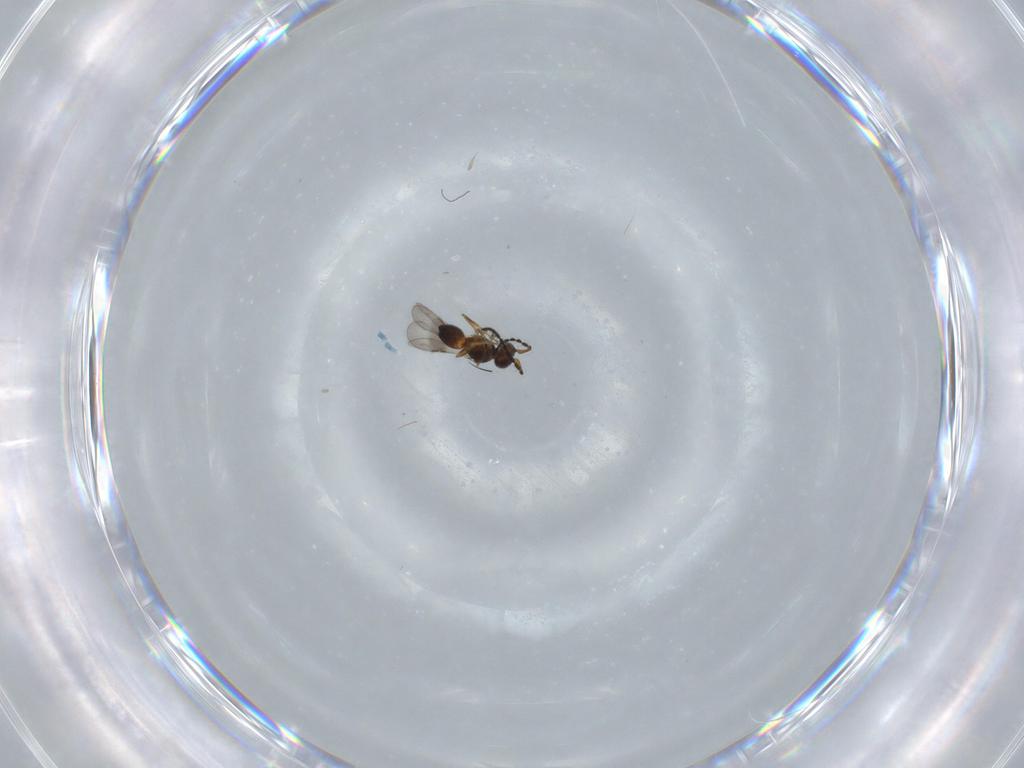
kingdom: Animalia
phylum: Arthropoda
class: Insecta
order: Hymenoptera
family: Ceraphronidae
